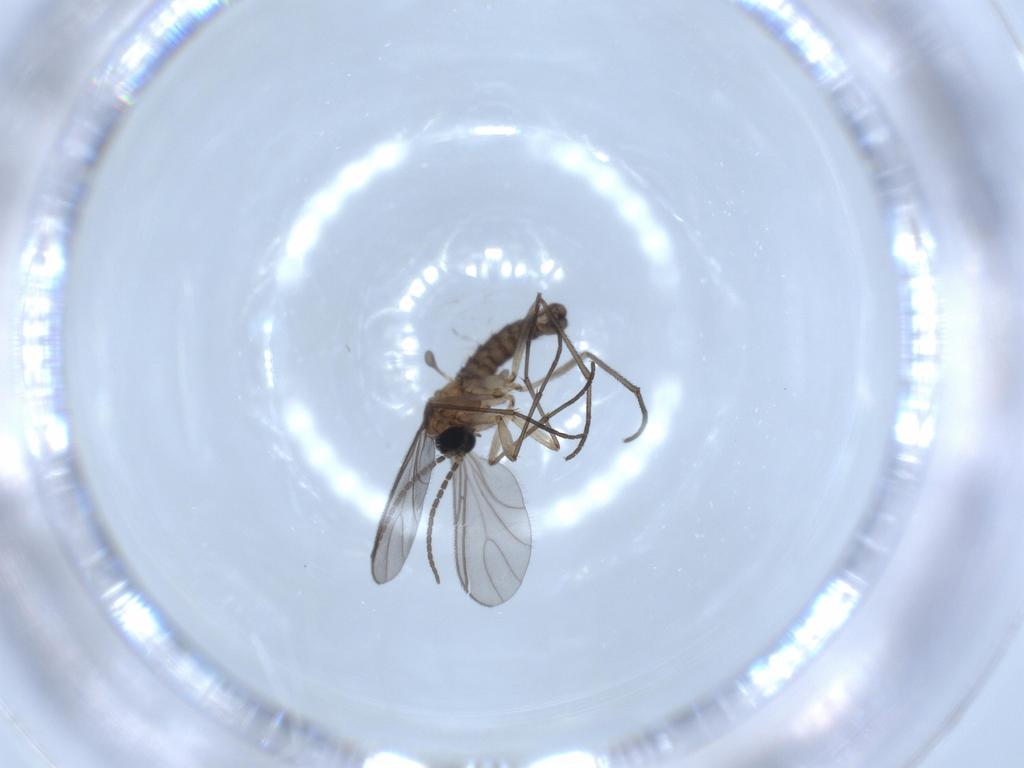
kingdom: Animalia
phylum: Arthropoda
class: Insecta
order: Diptera
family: Sciaridae
